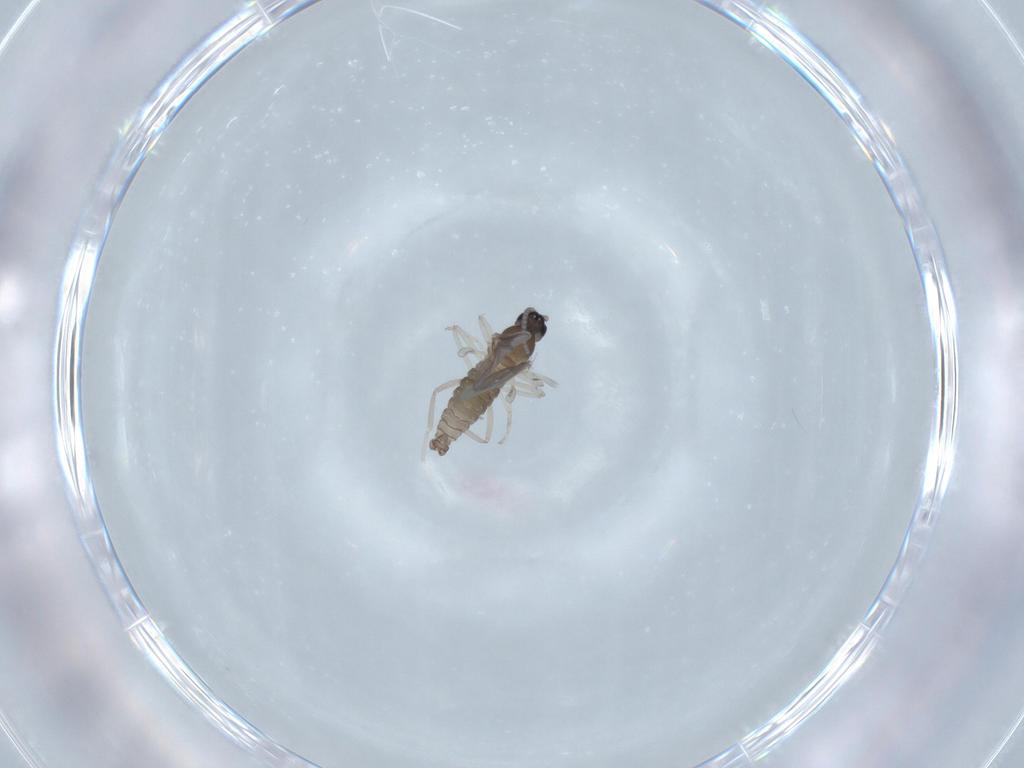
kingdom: Animalia
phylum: Arthropoda
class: Insecta
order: Diptera
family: Cecidomyiidae
